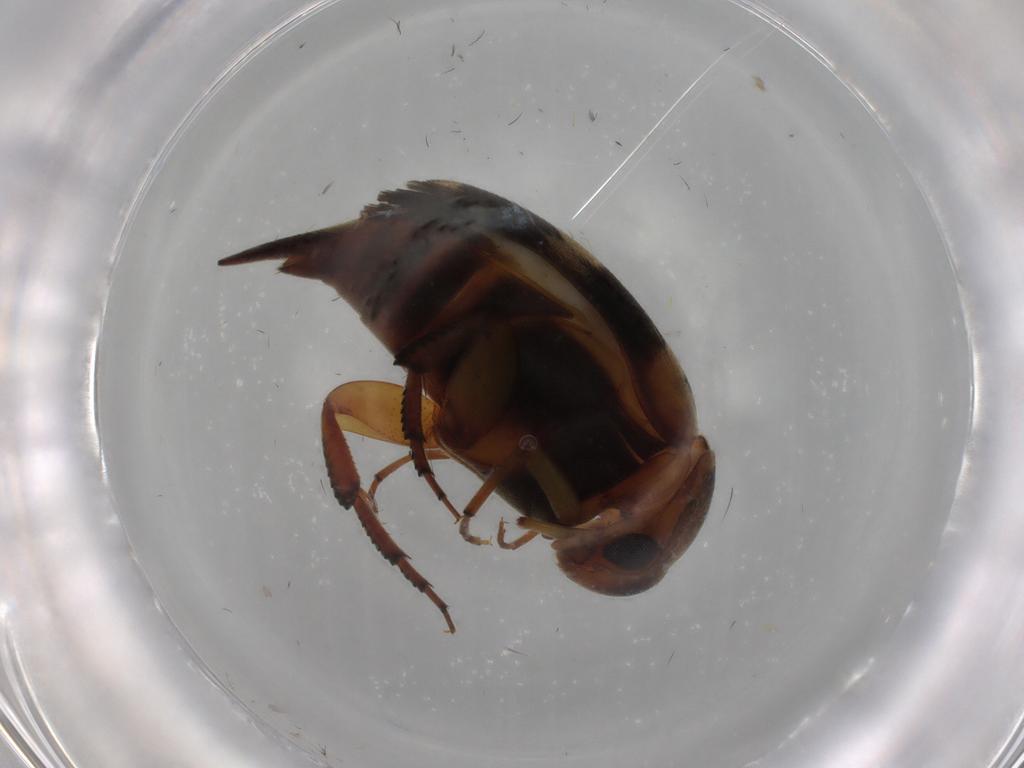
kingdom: Animalia
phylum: Arthropoda
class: Insecta
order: Coleoptera
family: Mordellidae
